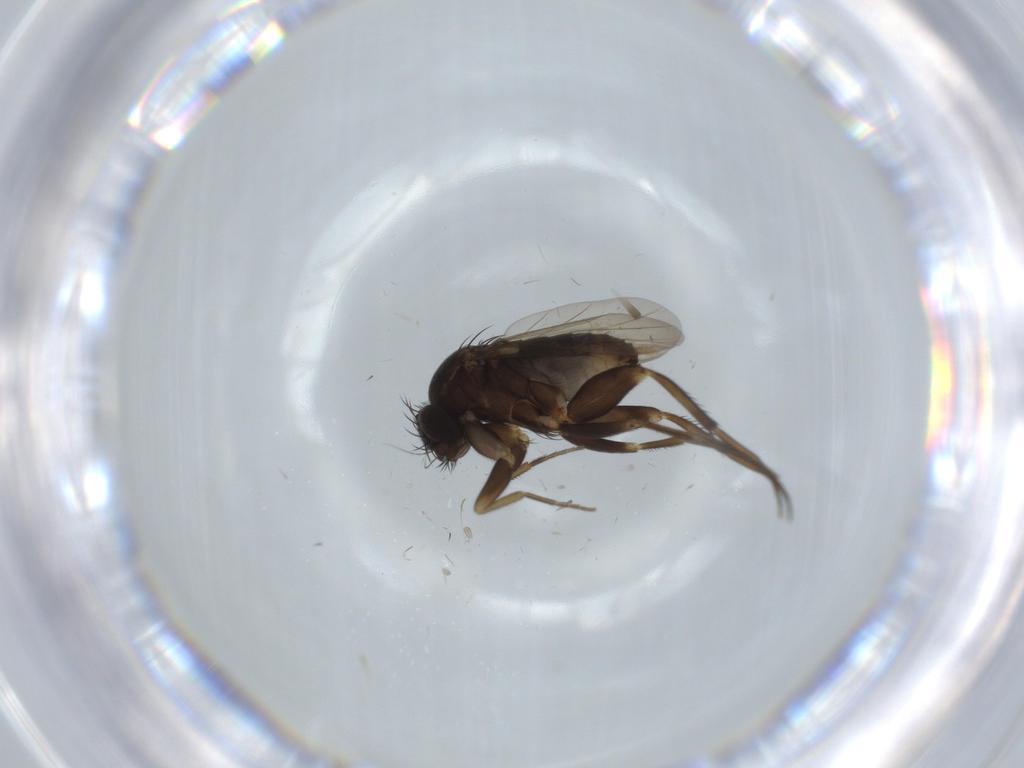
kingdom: Animalia
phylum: Arthropoda
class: Insecta
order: Diptera
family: Phoridae
